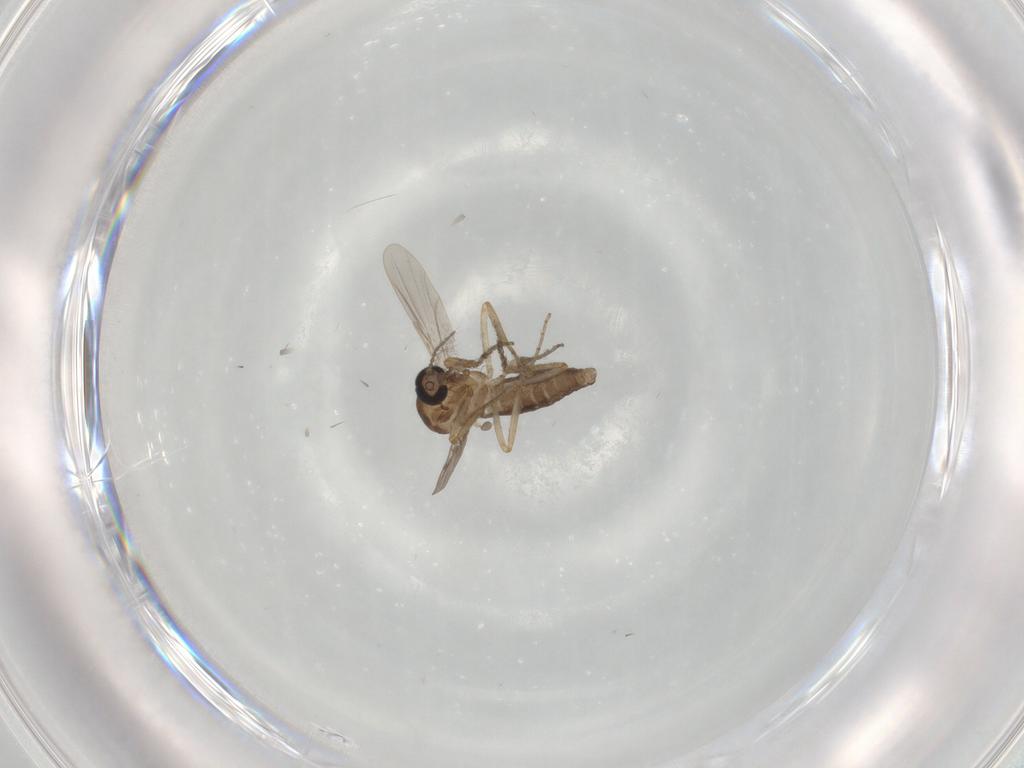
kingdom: Animalia
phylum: Arthropoda
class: Insecta
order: Diptera
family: Ceratopogonidae
